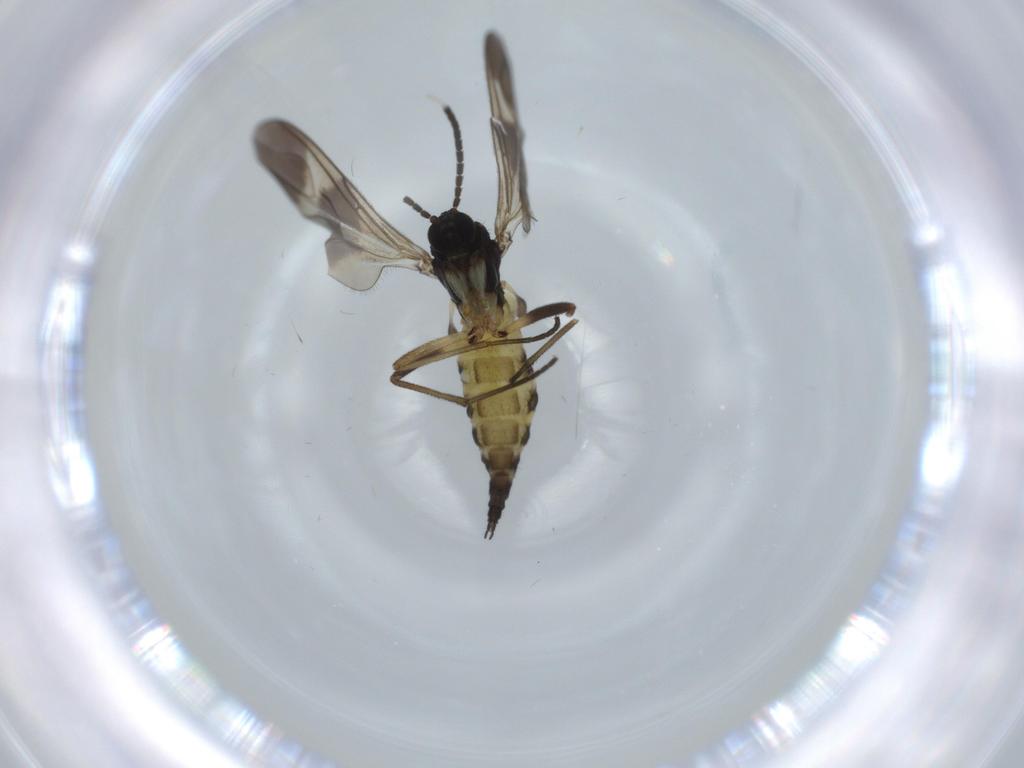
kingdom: Animalia
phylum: Arthropoda
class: Insecta
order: Diptera
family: Sciaridae
